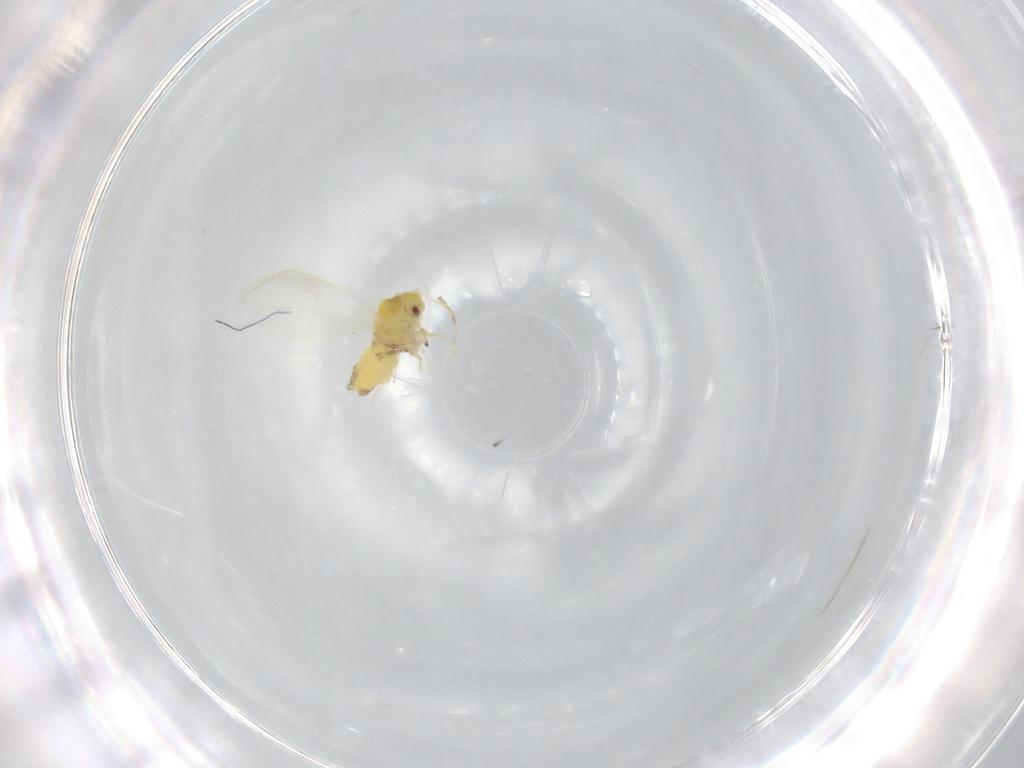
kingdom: Animalia
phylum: Arthropoda
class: Insecta
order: Hemiptera
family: Aleyrodidae
